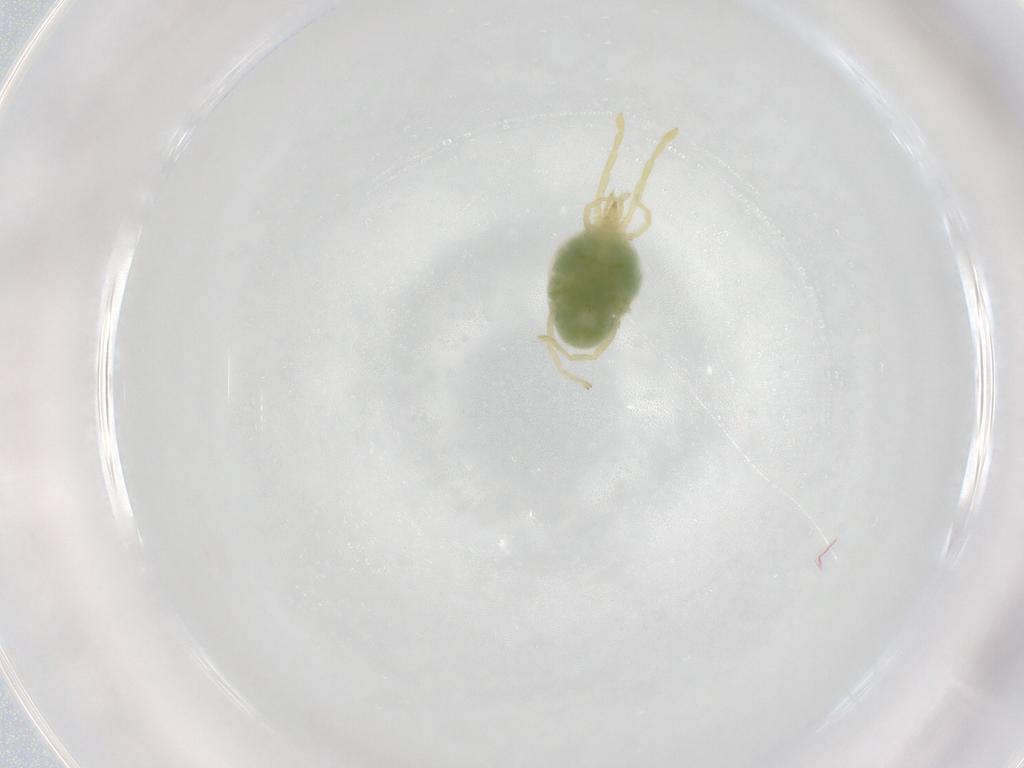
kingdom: Animalia
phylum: Arthropoda
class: Arachnida
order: Trombidiformes
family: Erythraeidae
